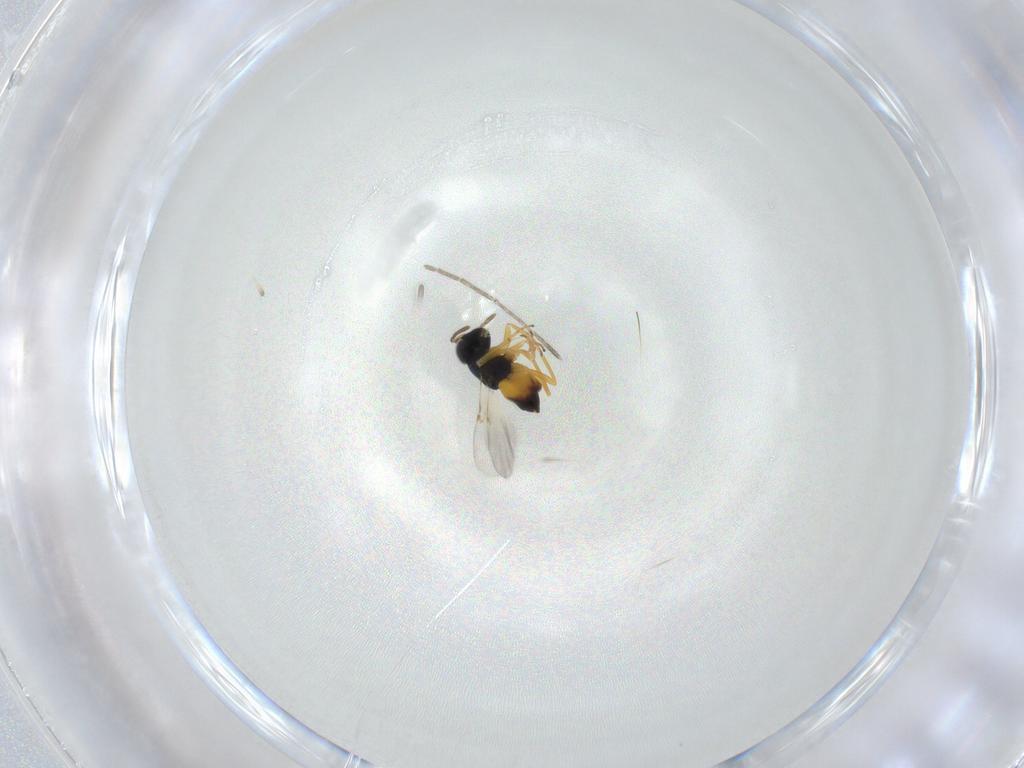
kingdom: Animalia
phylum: Arthropoda
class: Insecta
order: Hymenoptera
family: Encyrtidae
